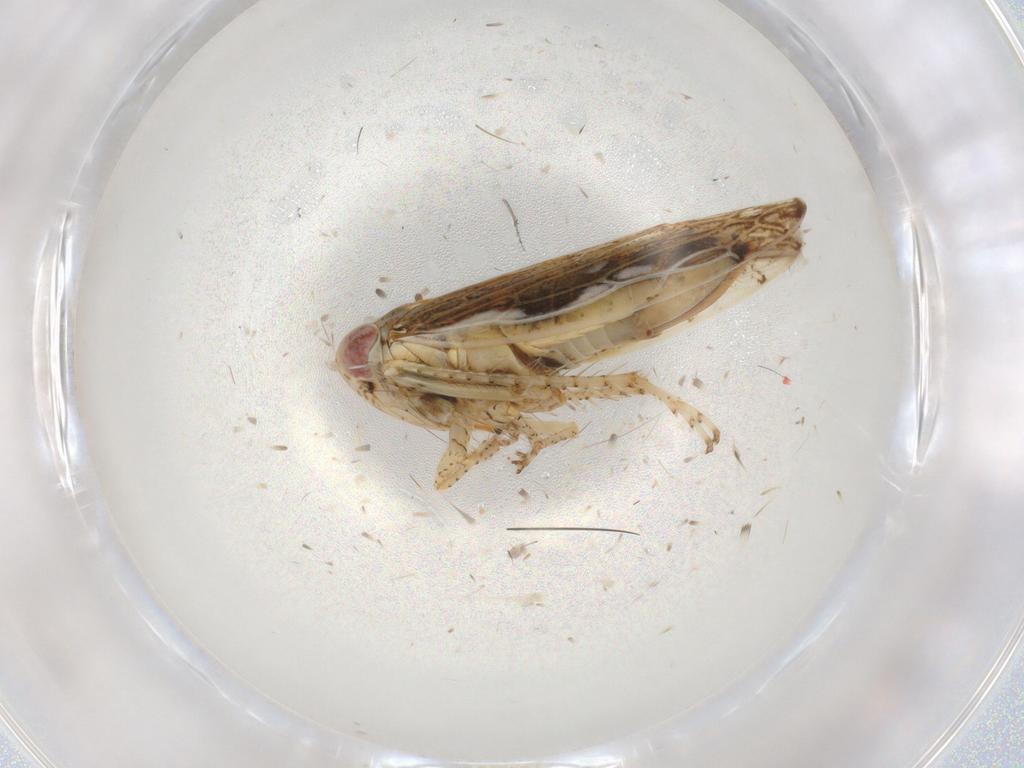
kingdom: Animalia
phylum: Arthropoda
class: Insecta
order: Hemiptera
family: Cicadellidae
